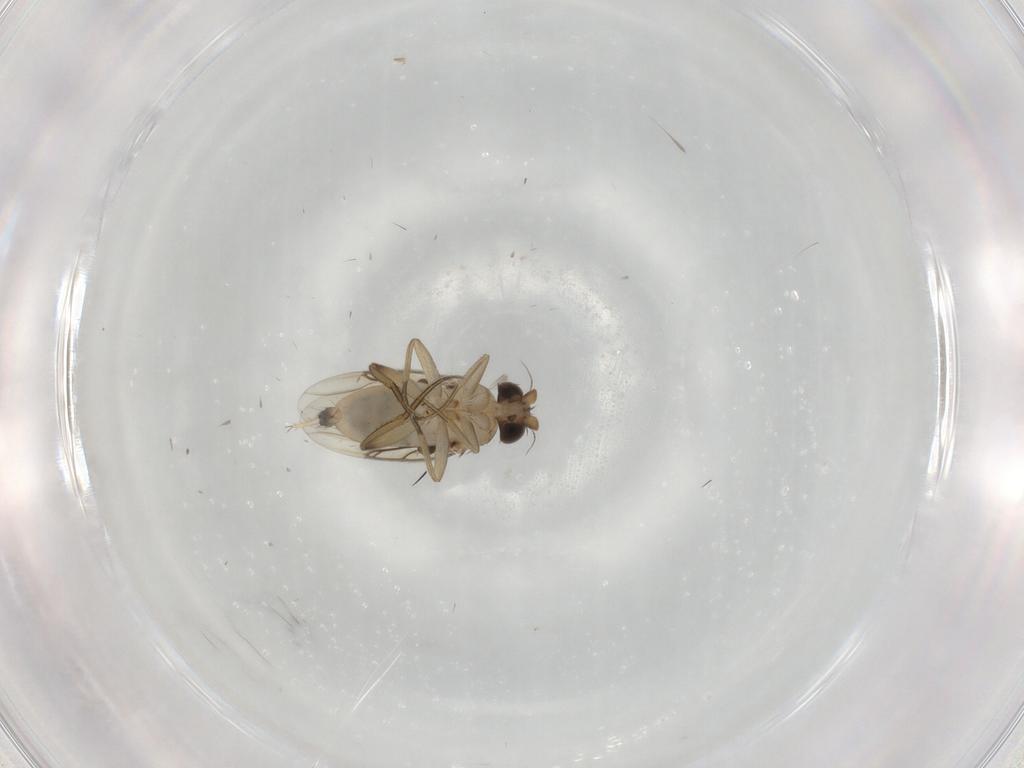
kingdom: Animalia
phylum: Arthropoda
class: Insecta
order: Diptera
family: Phoridae
